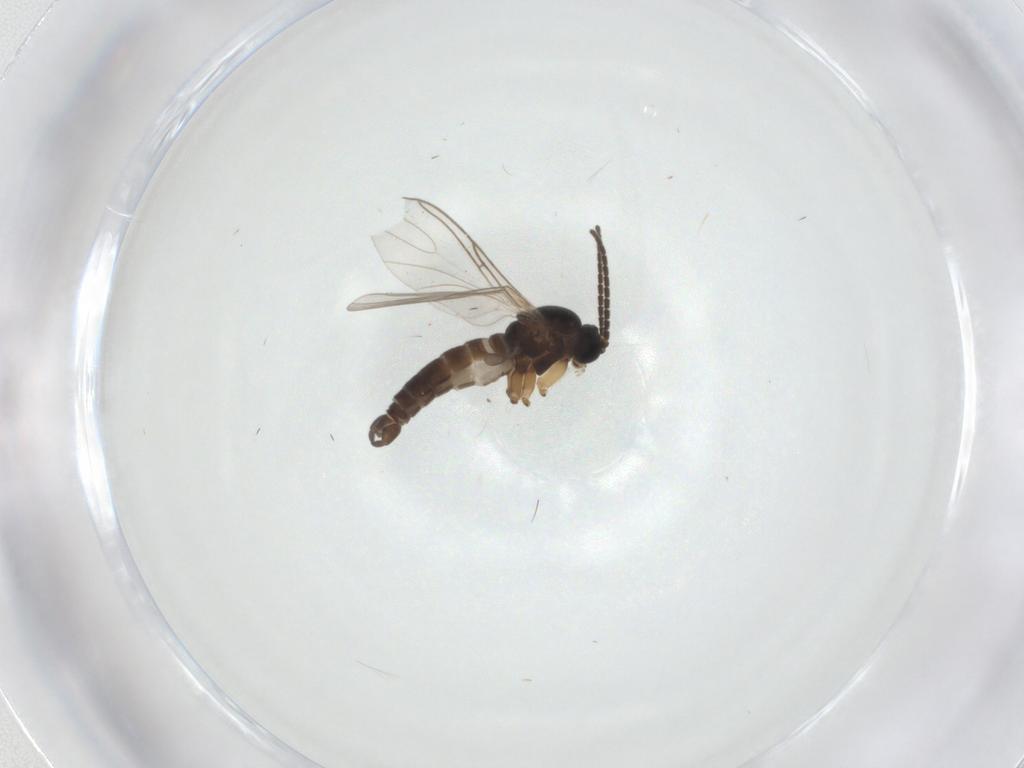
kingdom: Animalia
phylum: Arthropoda
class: Insecta
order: Diptera
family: Sciaridae
